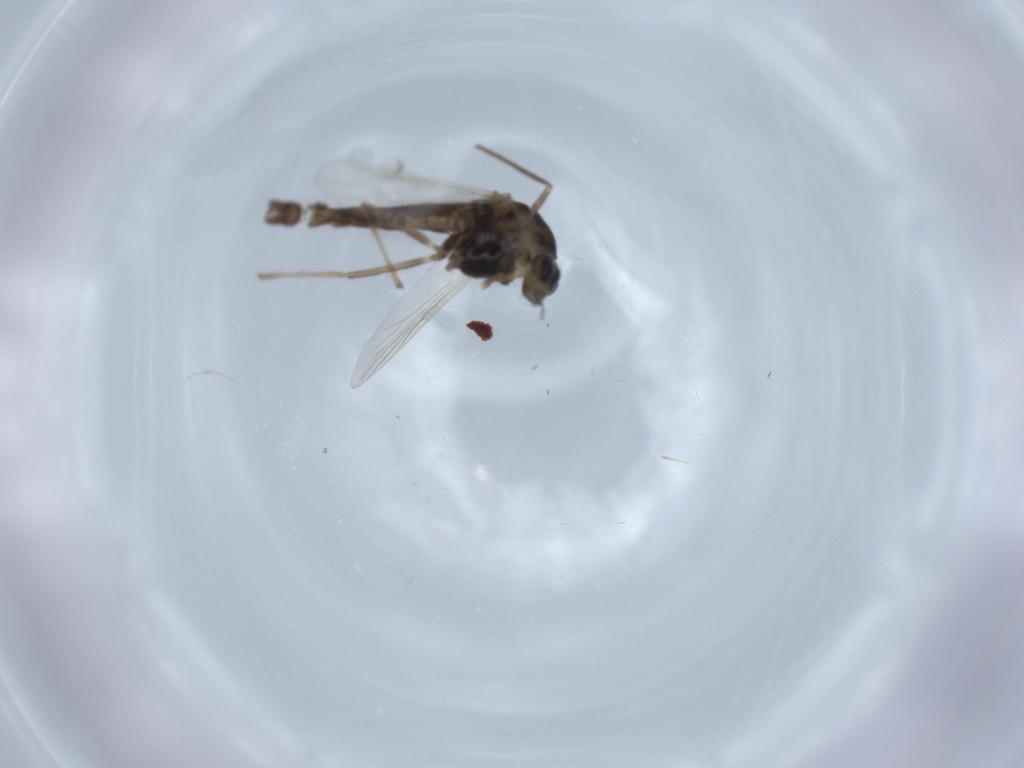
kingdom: Animalia
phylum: Arthropoda
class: Insecta
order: Diptera
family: Chironomidae
